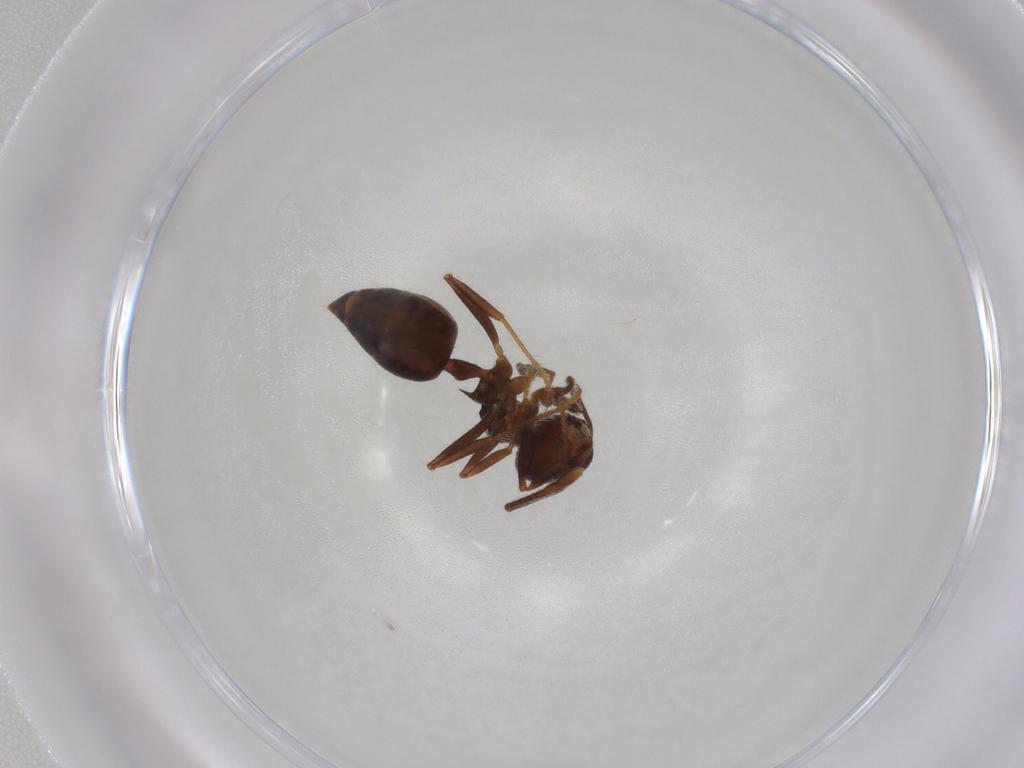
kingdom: Animalia
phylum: Arthropoda
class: Insecta
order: Hymenoptera
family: Formicidae
